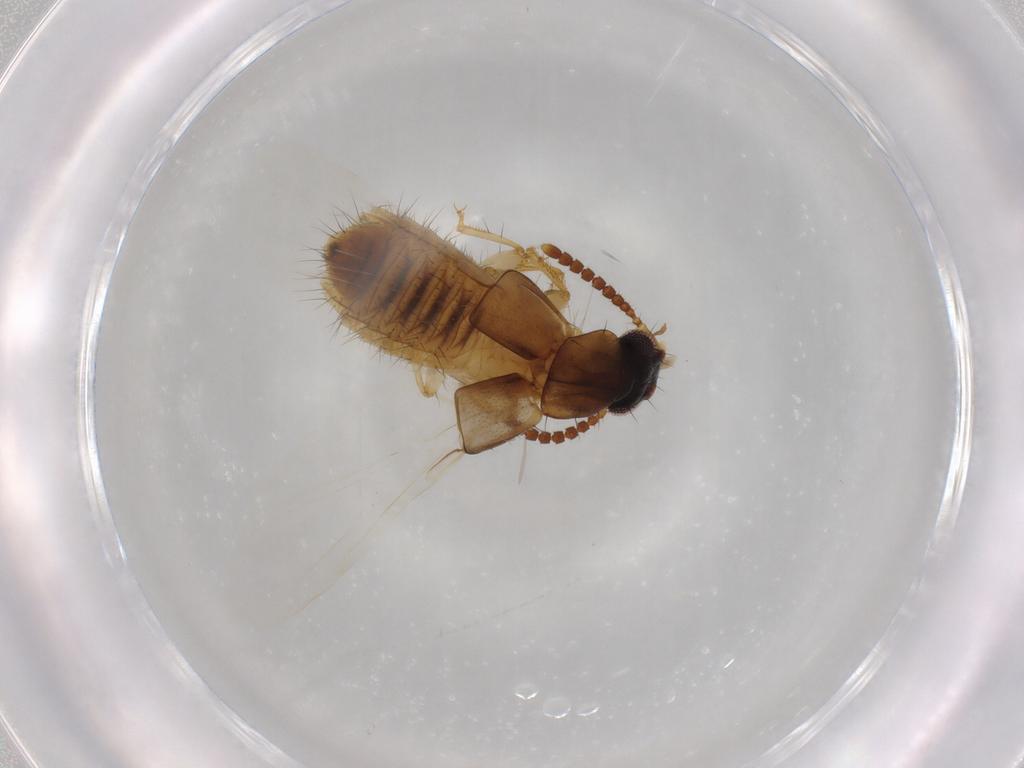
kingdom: Animalia
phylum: Arthropoda
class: Insecta
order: Coleoptera
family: Staphylinidae
